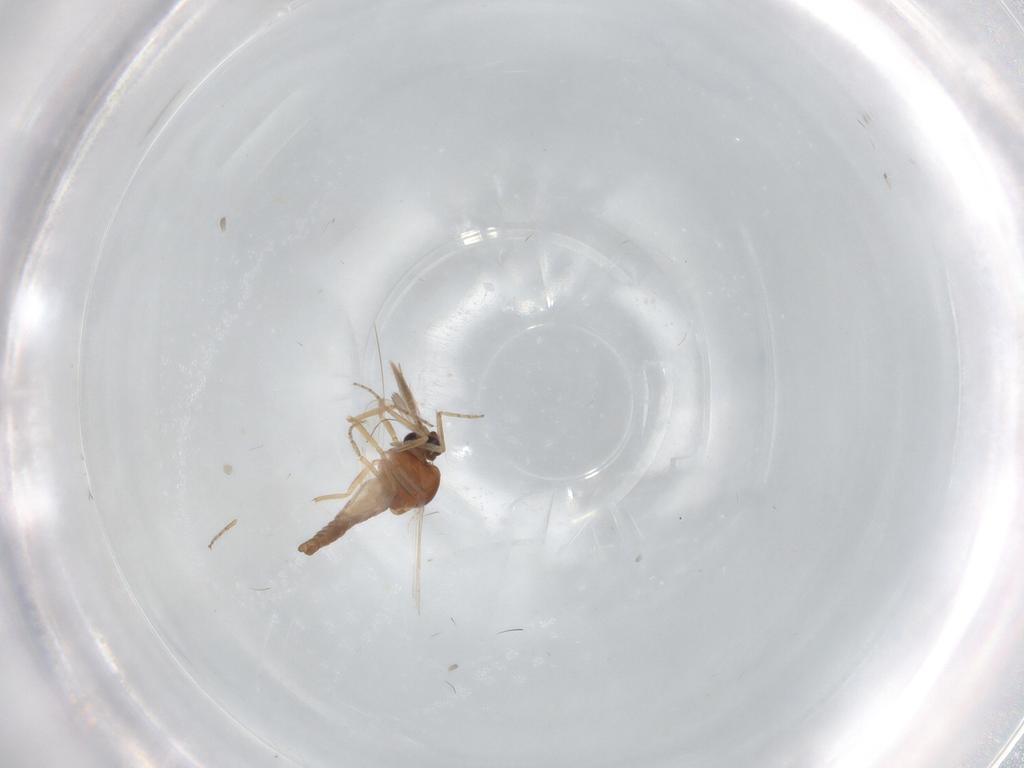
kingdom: Animalia
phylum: Arthropoda
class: Insecta
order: Diptera
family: Ceratopogonidae
